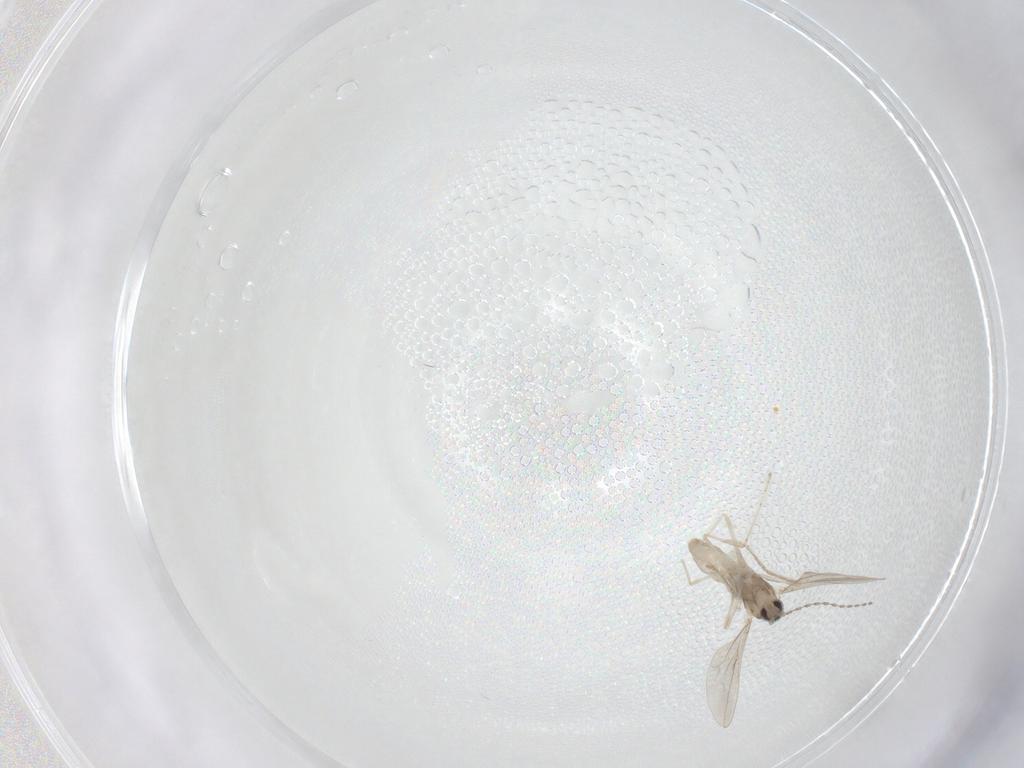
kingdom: Animalia
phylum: Arthropoda
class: Insecta
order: Diptera
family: Cecidomyiidae
